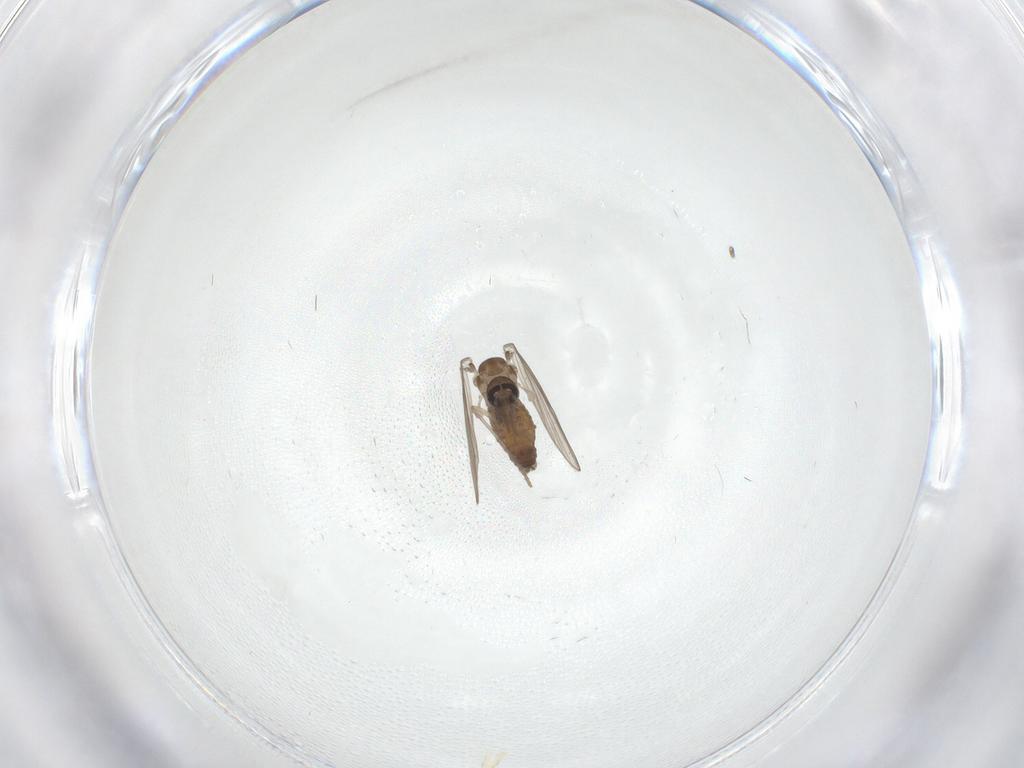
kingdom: Animalia
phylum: Arthropoda
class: Insecta
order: Diptera
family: Psychodidae
